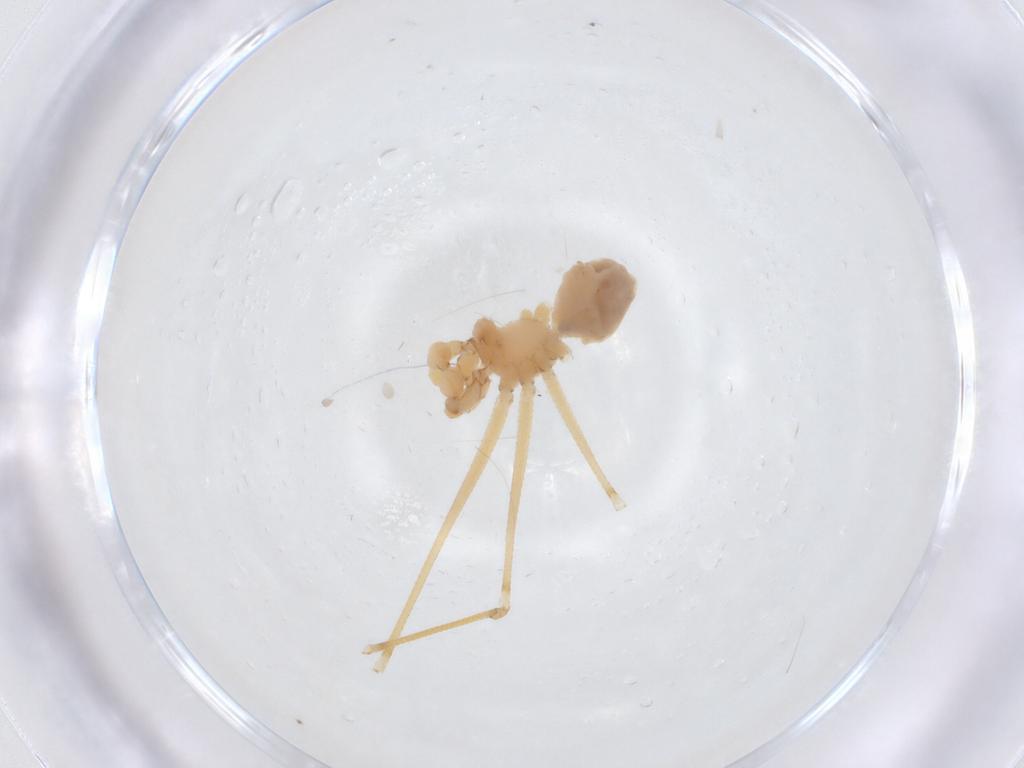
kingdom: Animalia
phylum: Arthropoda
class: Arachnida
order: Araneae
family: Pholcidae
